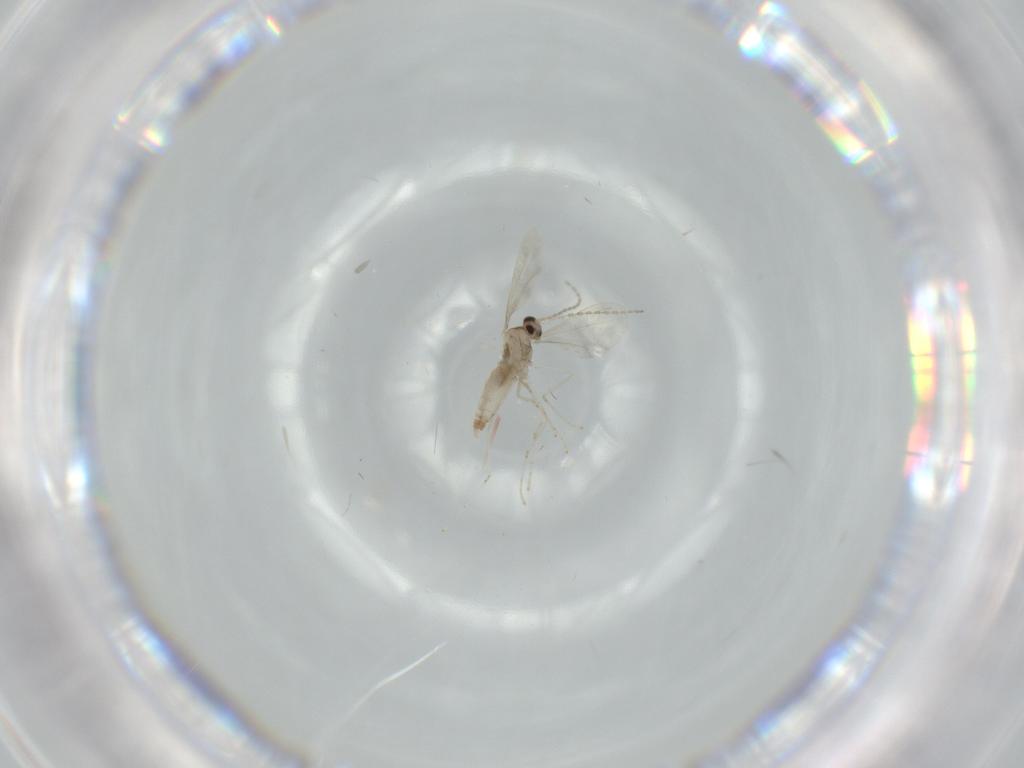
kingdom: Animalia
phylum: Arthropoda
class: Insecta
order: Diptera
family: Cecidomyiidae
